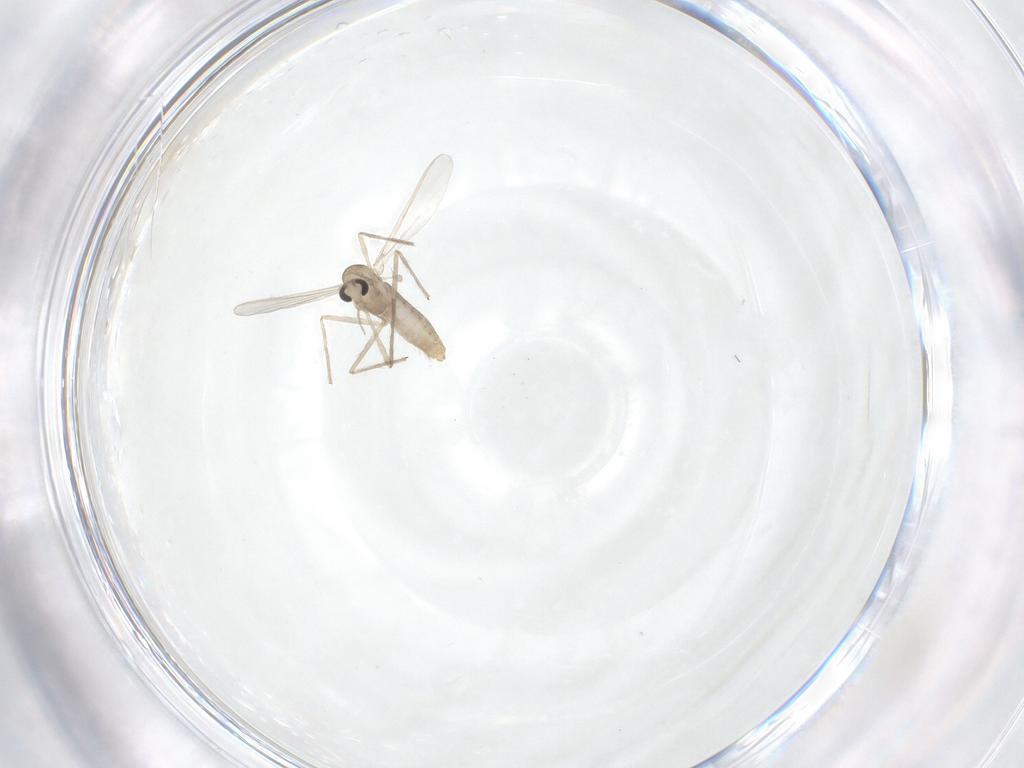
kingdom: Animalia
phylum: Arthropoda
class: Insecta
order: Diptera
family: Chironomidae
